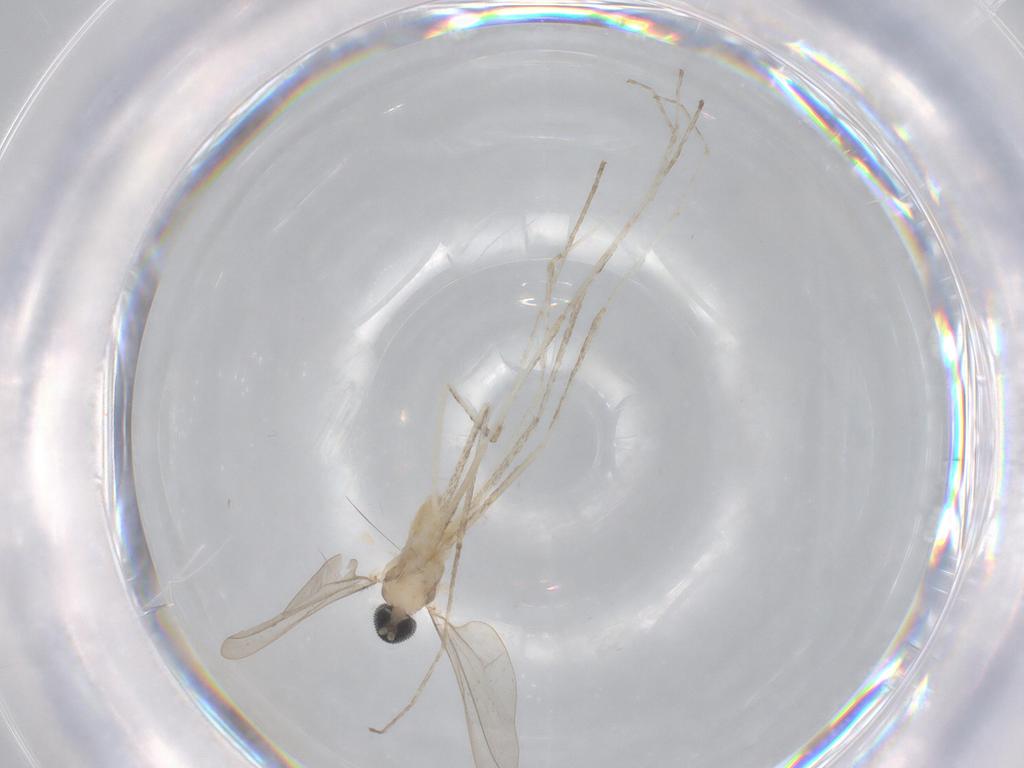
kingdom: Animalia
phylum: Arthropoda
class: Insecta
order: Diptera
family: Cecidomyiidae
